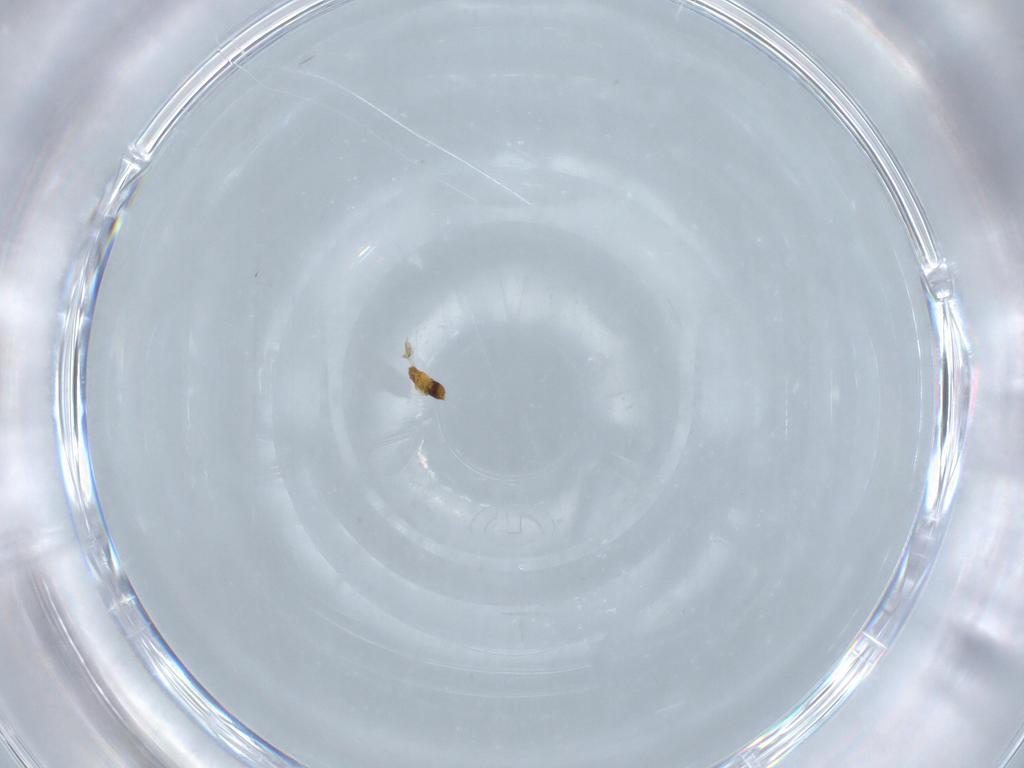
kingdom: Animalia
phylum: Arthropoda
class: Insecta
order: Hymenoptera
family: Trichogrammatidae
